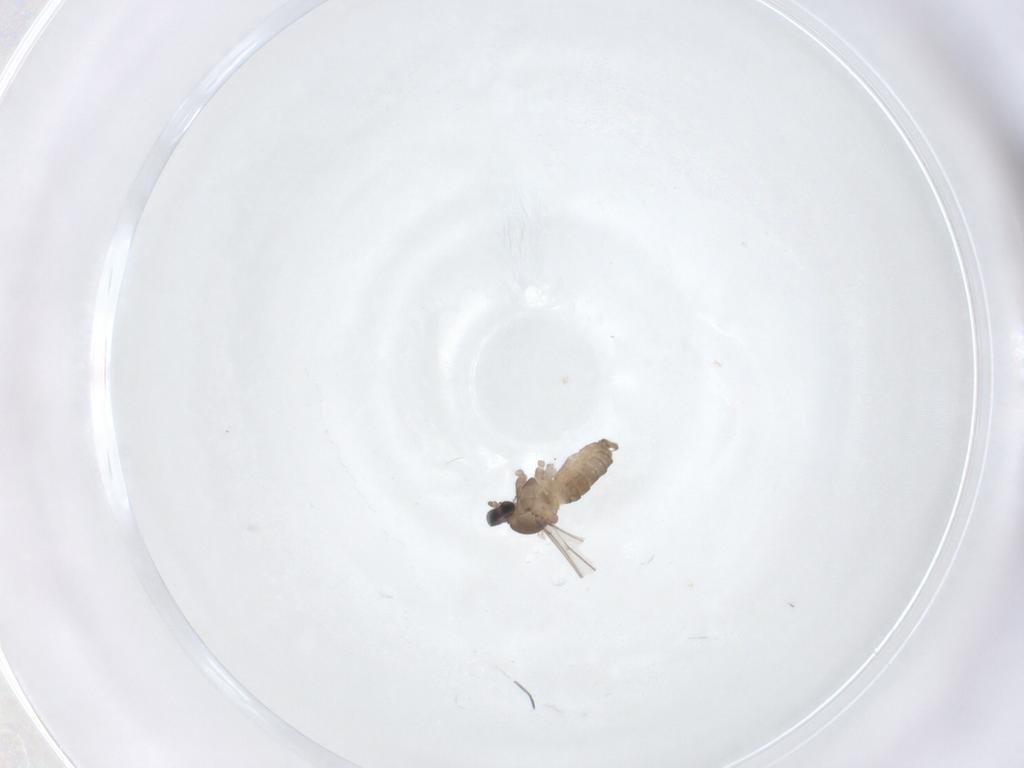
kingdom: Animalia
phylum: Arthropoda
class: Insecta
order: Diptera
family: Cecidomyiidae
